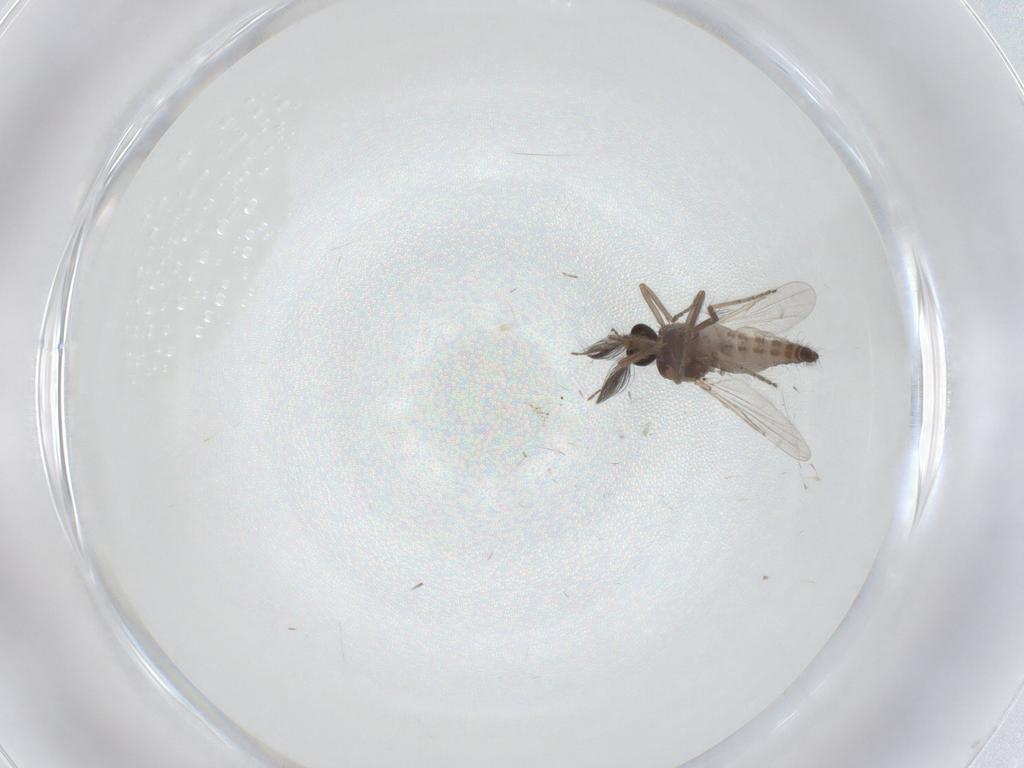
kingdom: Animalia
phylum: Arthropoda
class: Insecta
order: Diptera
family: Ceratopogonidae
